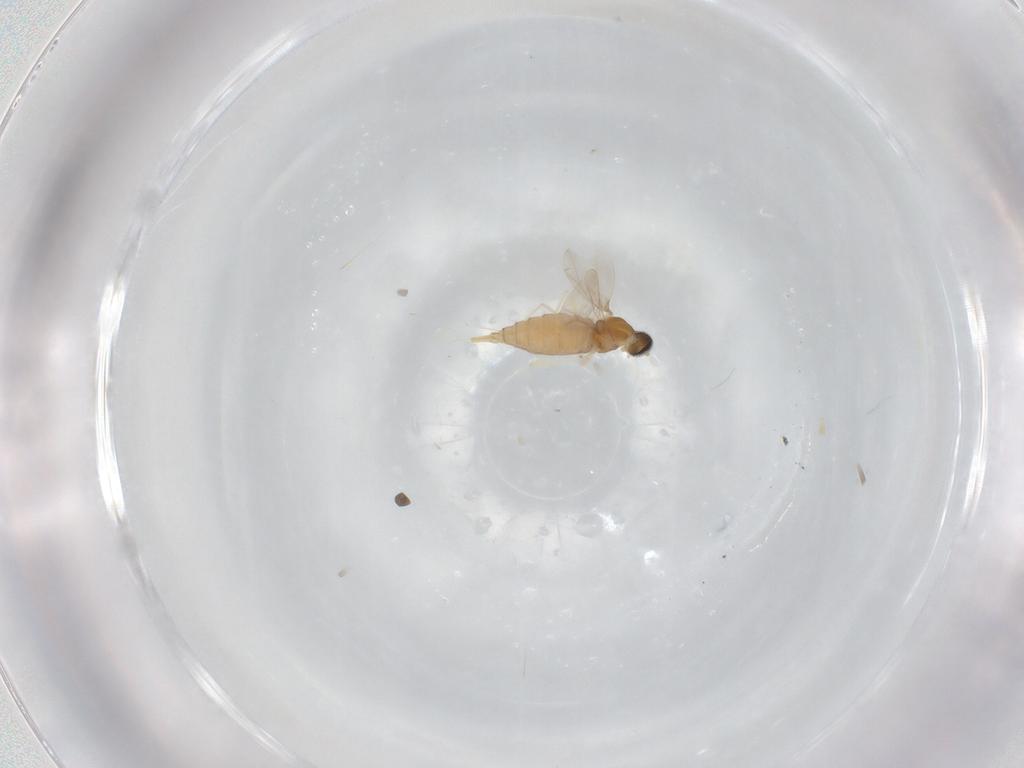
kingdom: Animalia
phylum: Arthropoda
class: Insecta
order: Diptera
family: Cecidomyiidae
